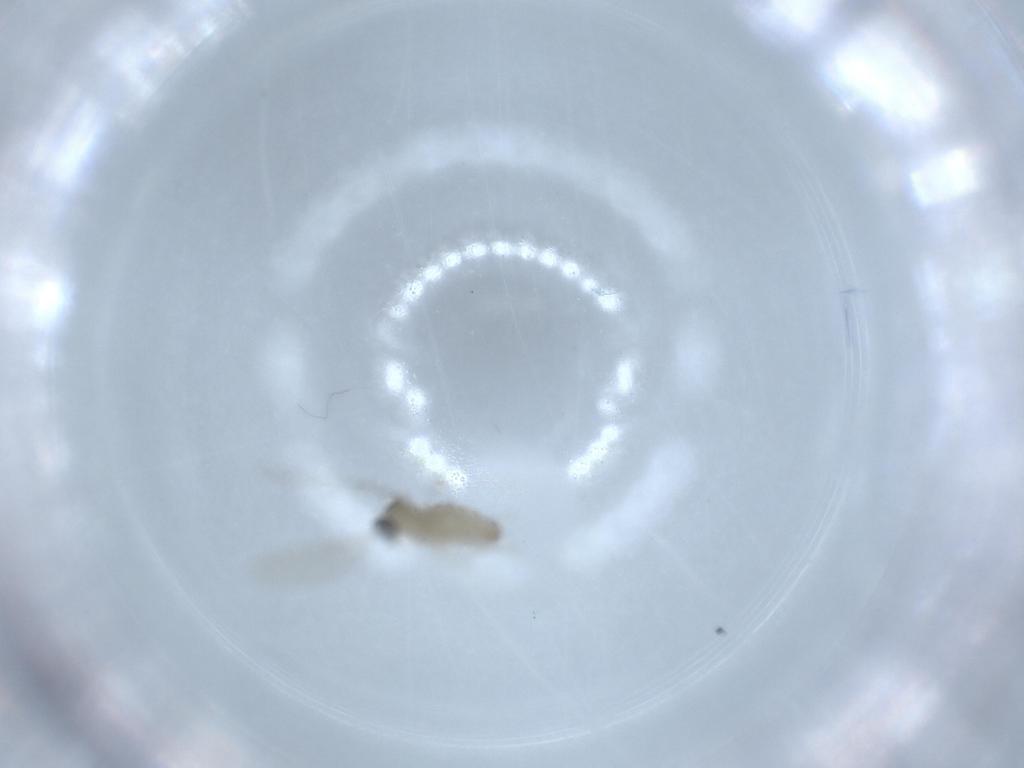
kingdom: Animalia
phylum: Arthropoda
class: Insecta
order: Diptera
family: Cecidomyiidae
